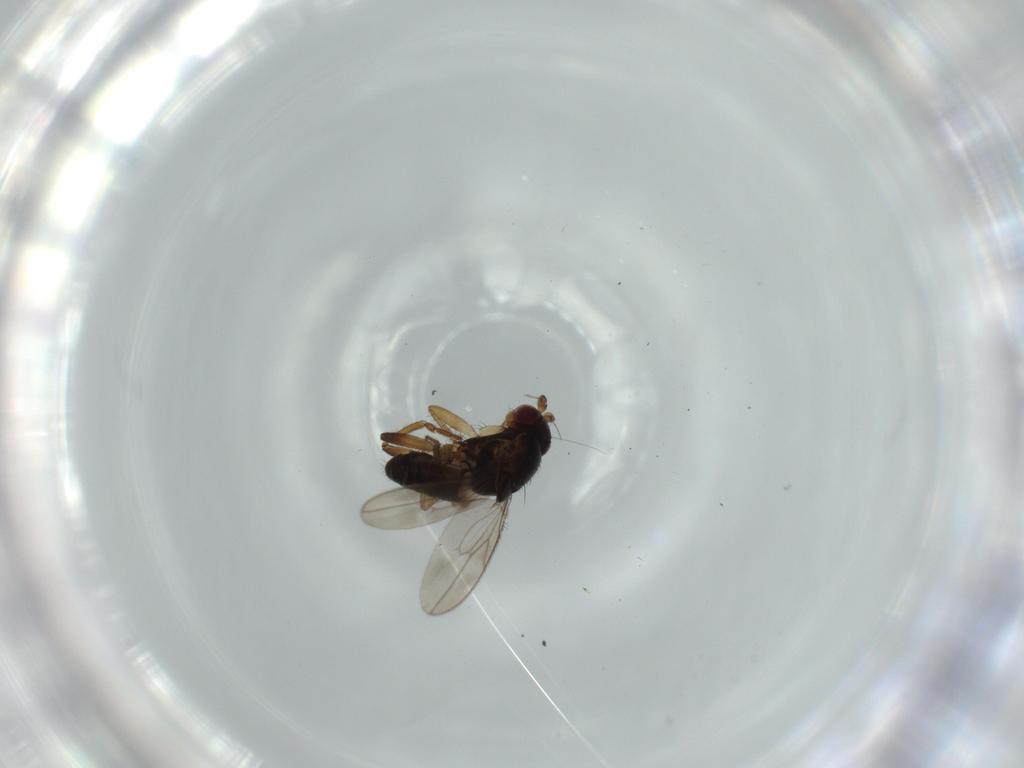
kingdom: Animalia
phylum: Arthropoda
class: Insecta
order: Diptera
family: Sphaeroceridae
